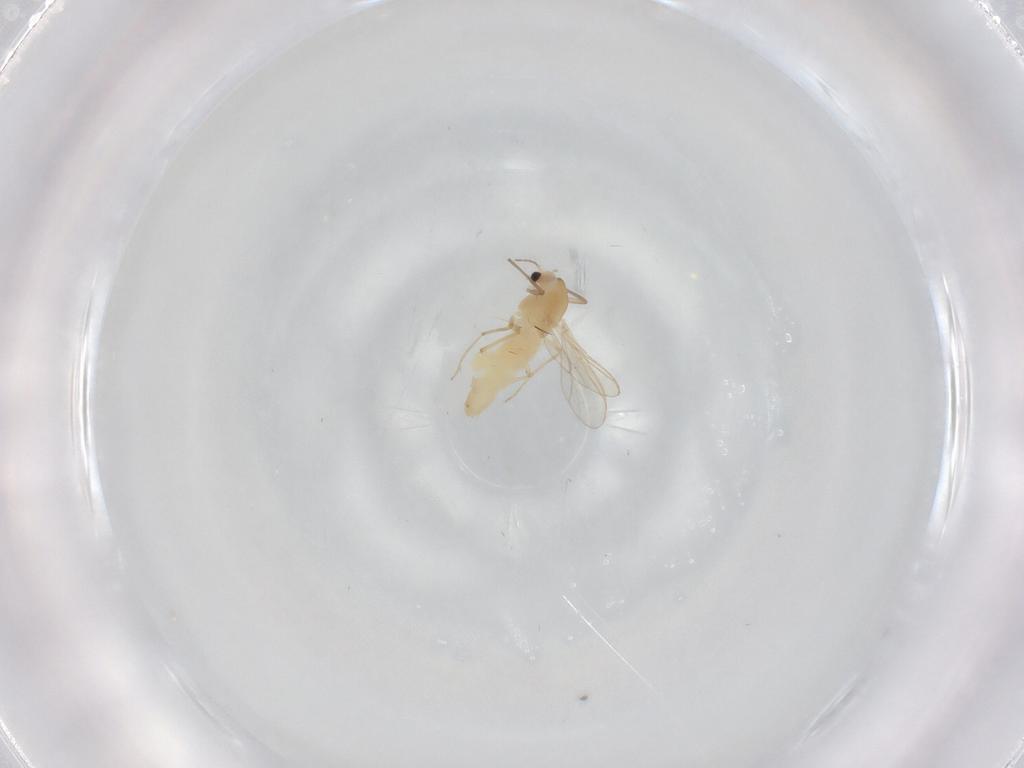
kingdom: Animalia
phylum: Arthropoda
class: Insecta
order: Diptera
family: Chironomidae
